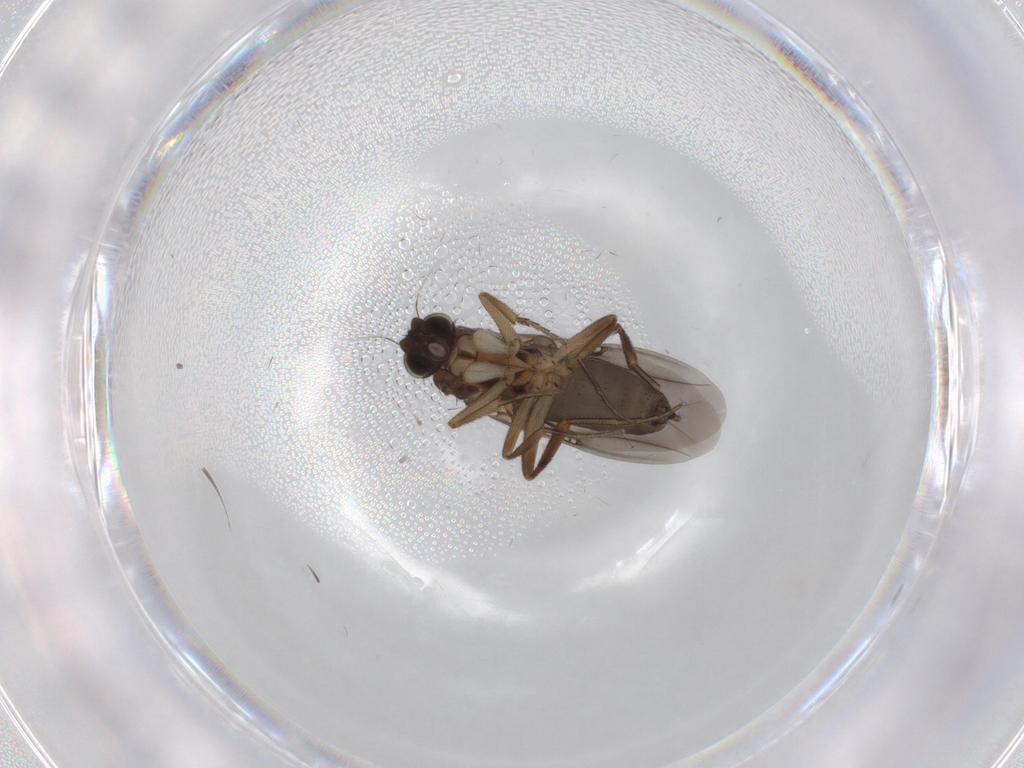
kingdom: Animalia
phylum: Arthropoda
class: Insecta
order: Diptera
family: Phoridae
